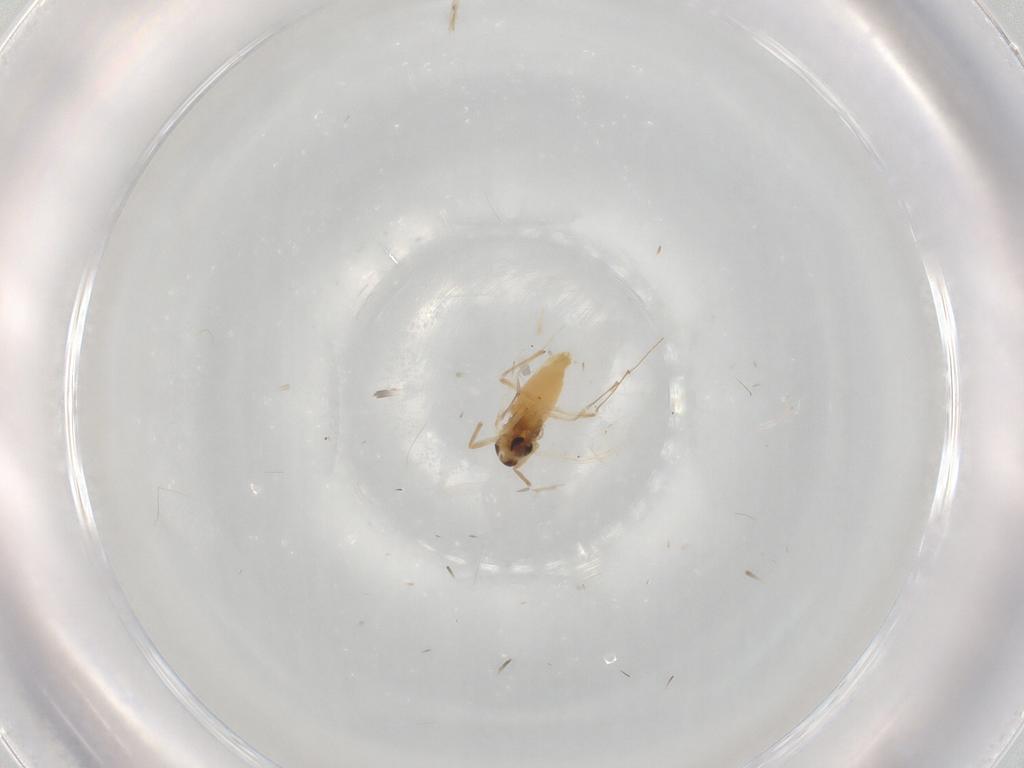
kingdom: Animalia
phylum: Arthropoda
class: Insecta
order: Diptera
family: Chironomidae
